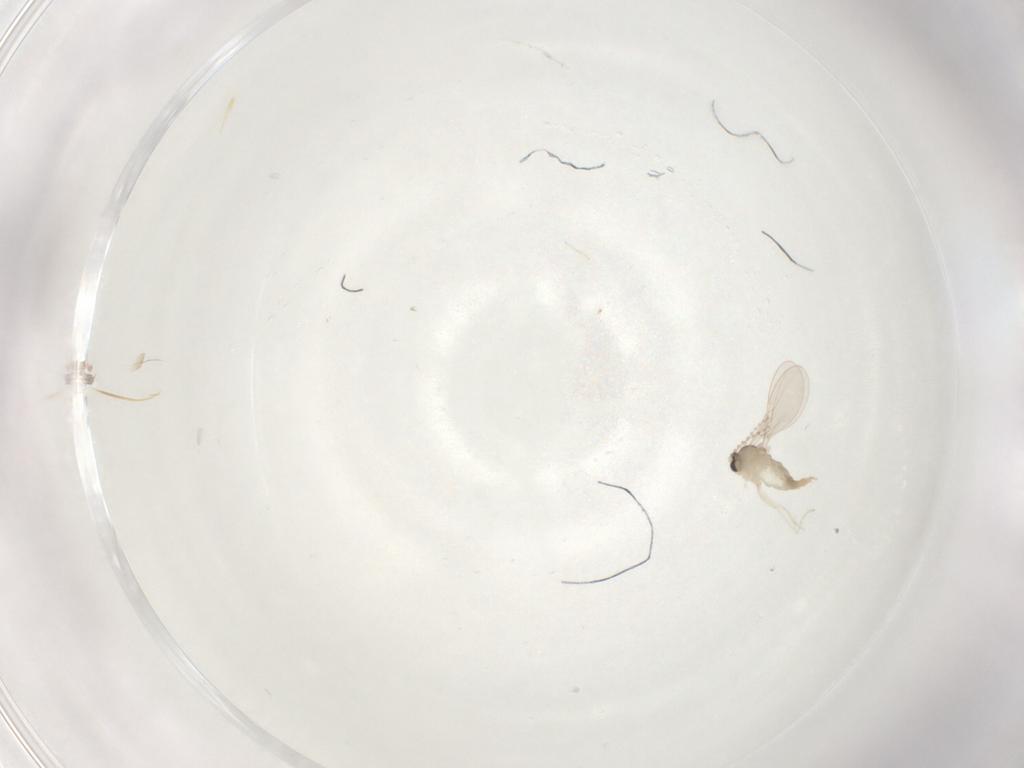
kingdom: Animalia
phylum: Arthropoda
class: Insecta
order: Diptera
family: Cecidomyiidae
